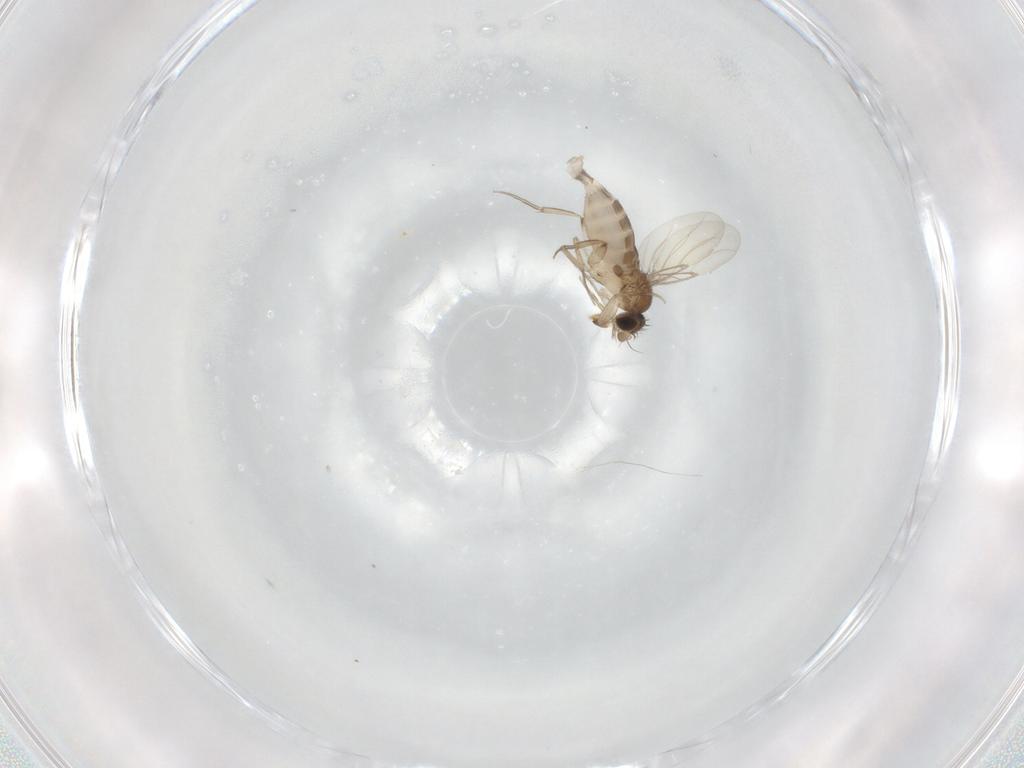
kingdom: Animalia
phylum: Arthropoda
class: Insecta
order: Diptera
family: Phoridae
